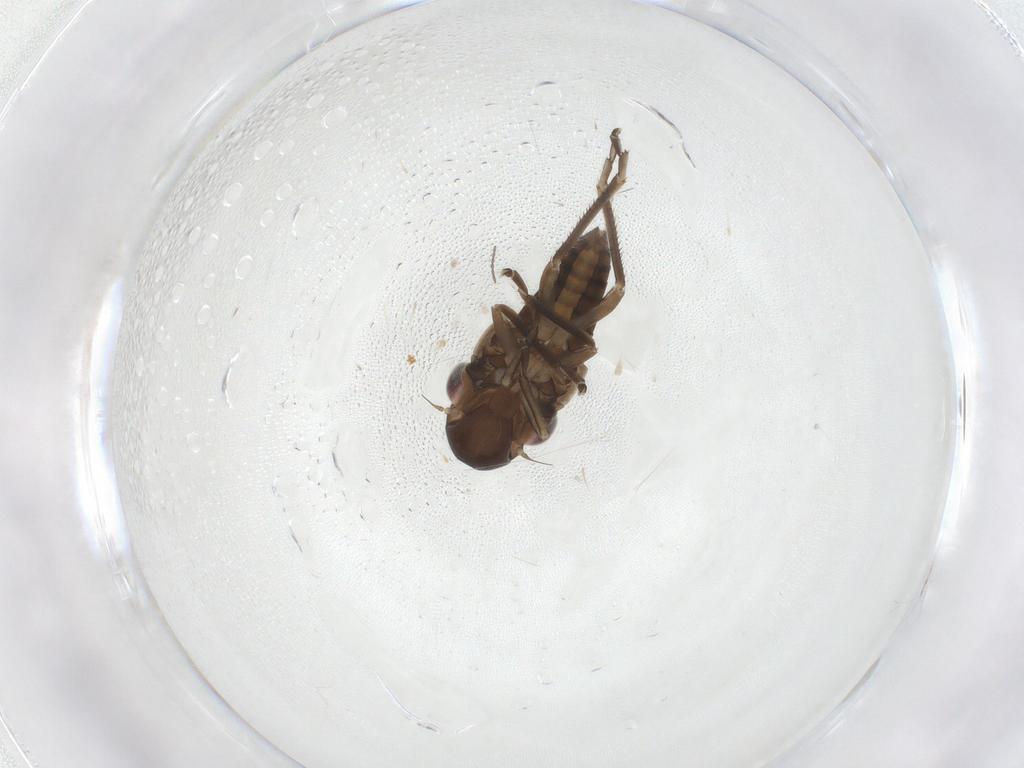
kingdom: Animalia
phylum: Arthropoda
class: Insecta
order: Hemiptera
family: Cicadellidae
